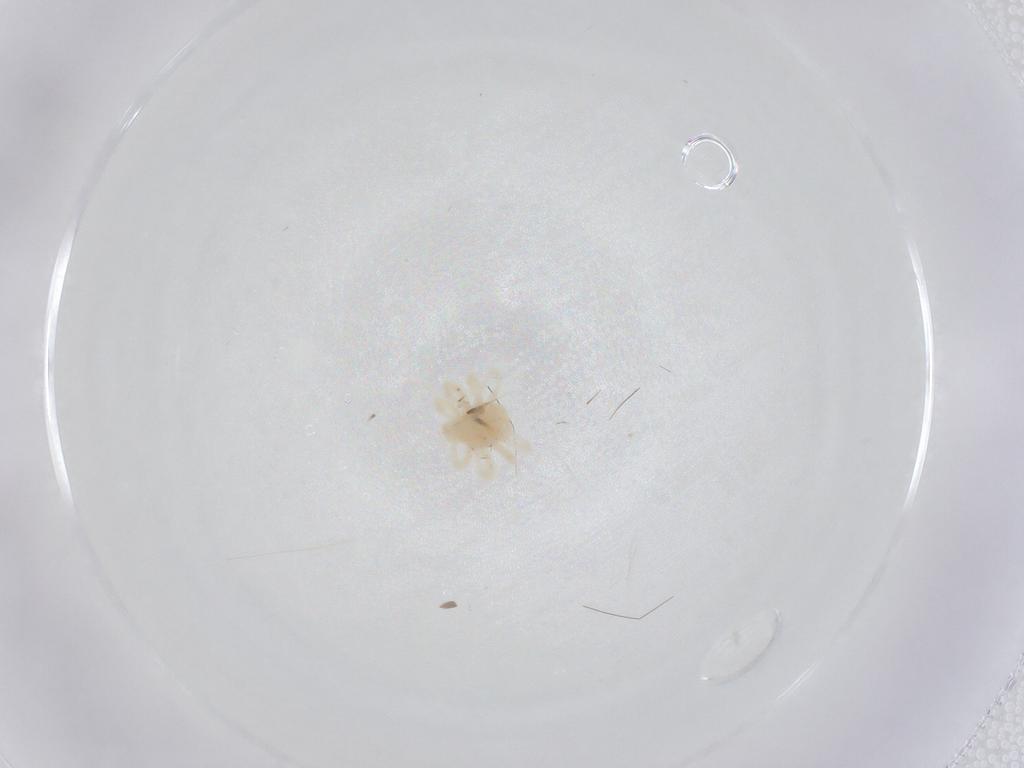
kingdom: Animalia
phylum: Arthropoda
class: Arachnida
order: Trombidiformes
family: Anystidae
